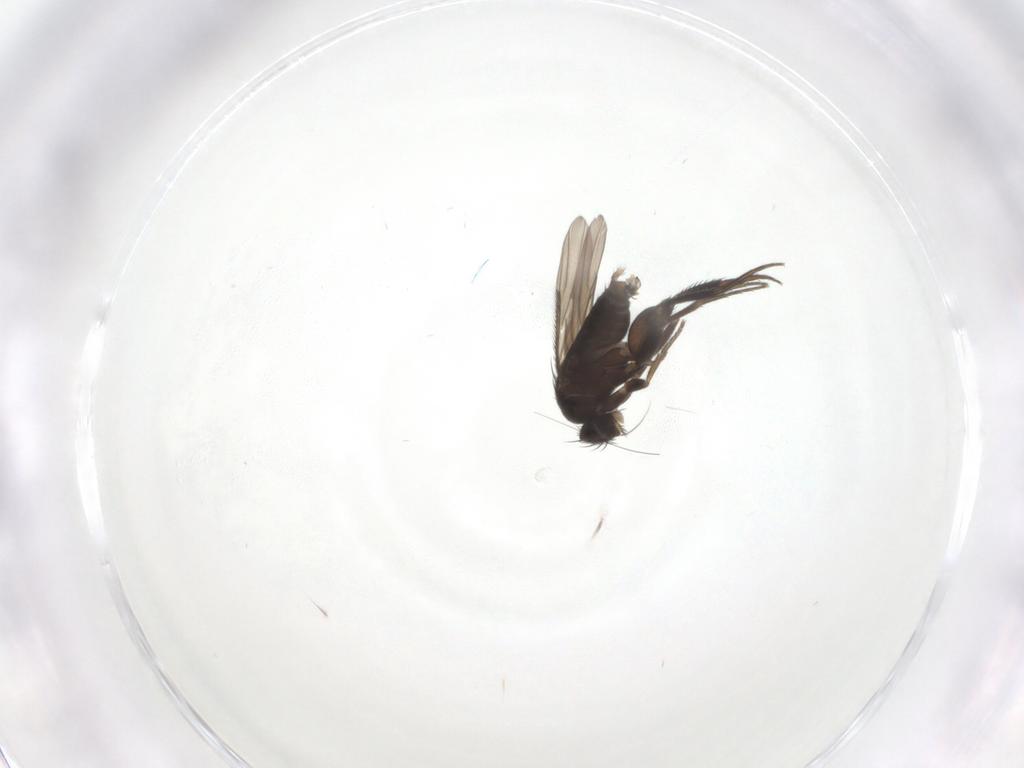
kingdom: Animalia
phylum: Arthropoda
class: Insecta
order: Diptera
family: Phoridae
